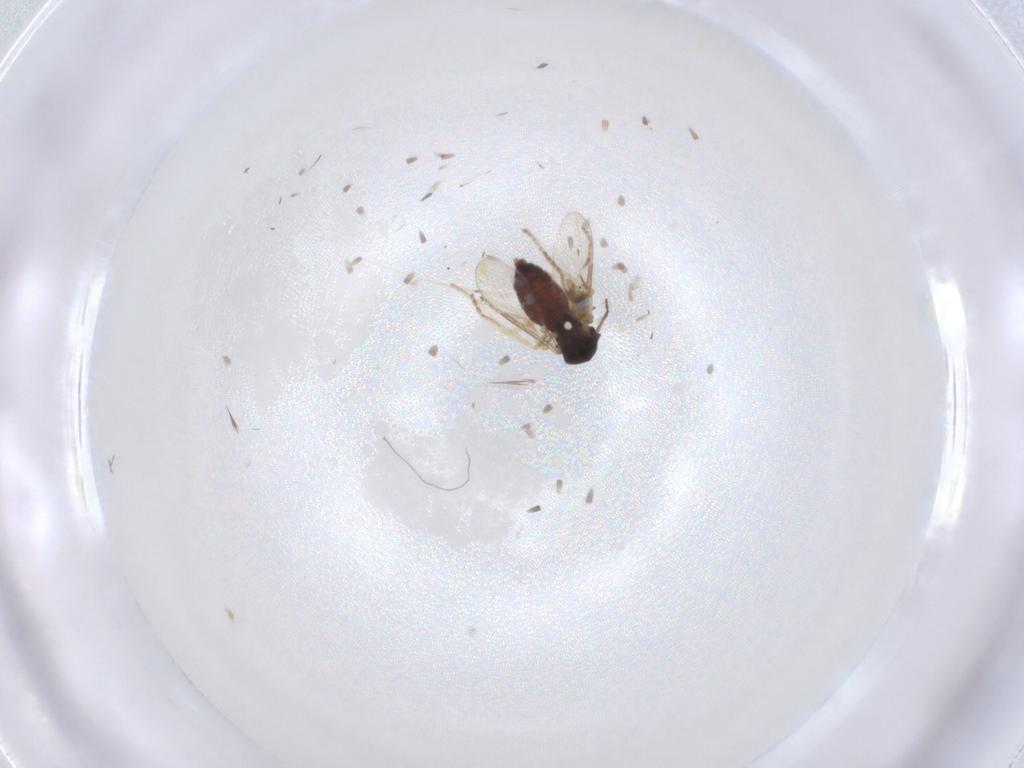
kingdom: Animalia
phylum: Arthropoda
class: Insecta
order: Diptera
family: Ceratopogonidae
